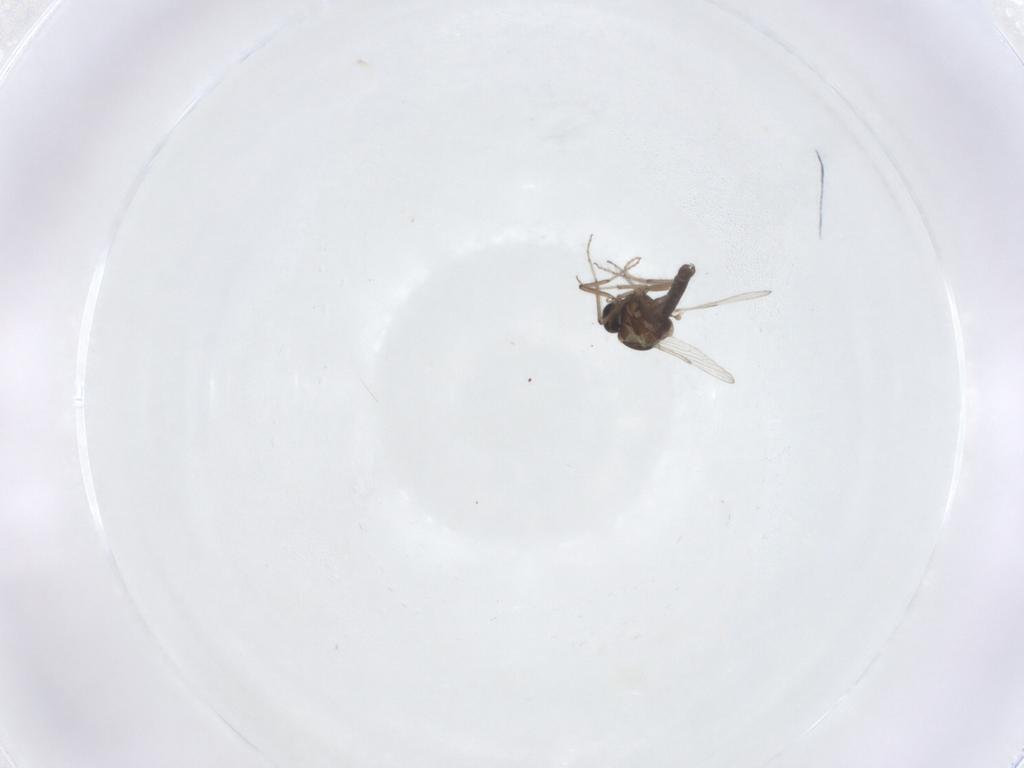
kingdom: Animalia
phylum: Arthropoda
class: Insecta
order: Diptera
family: Ceratopogonidae
